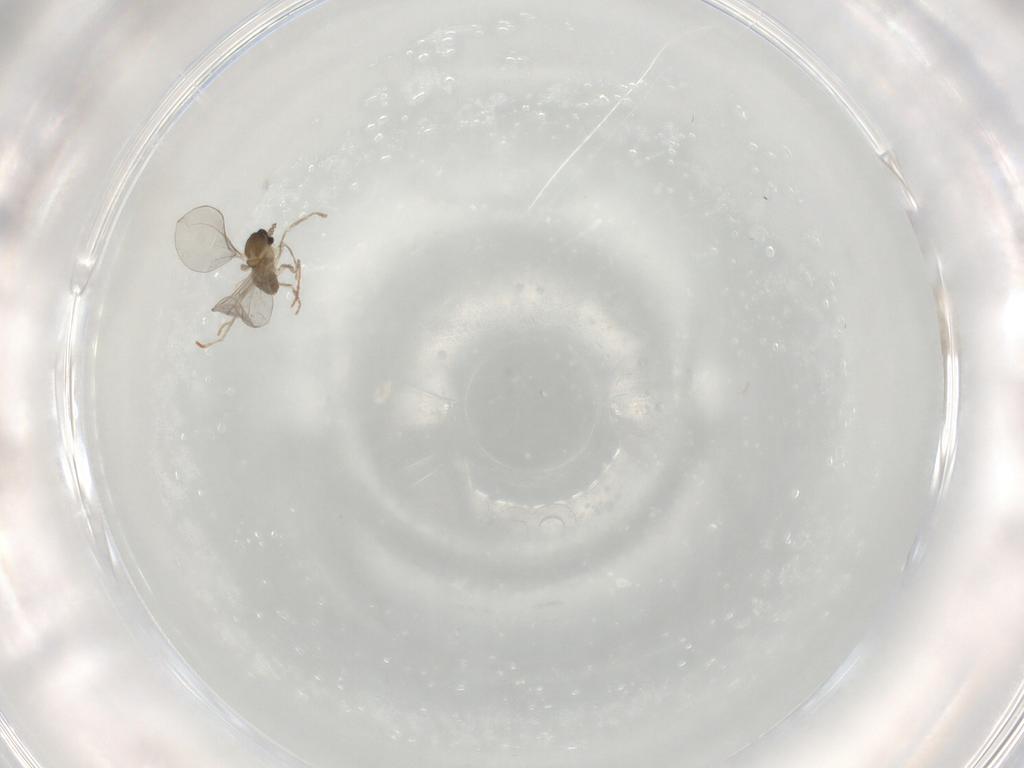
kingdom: Animalia
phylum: Arthropoda
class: Insecta
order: Diptera
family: Cecidomyiidae
